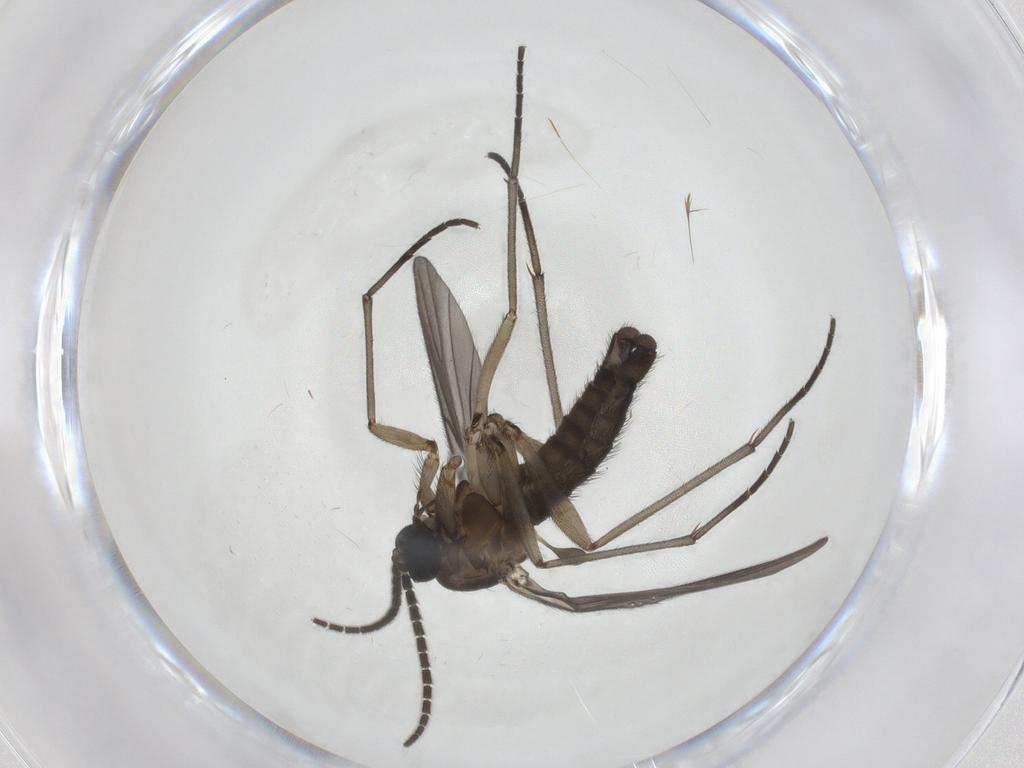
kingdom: Animalia
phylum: Arthropoda
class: Insecta
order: Diptera
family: Sciaridae
